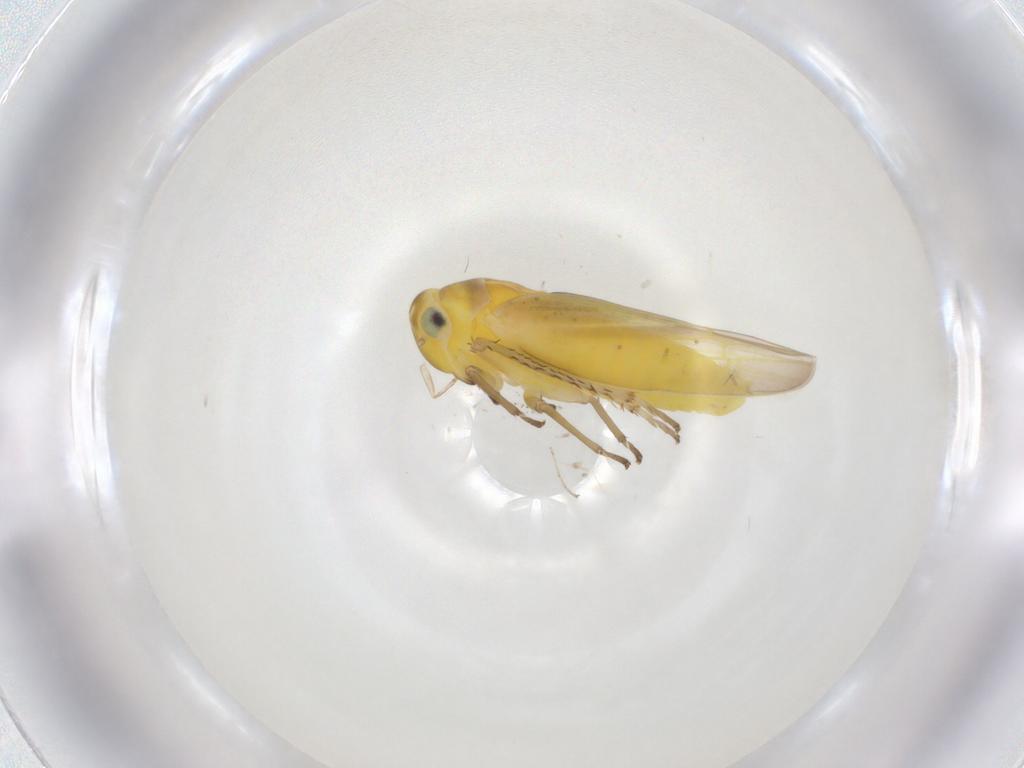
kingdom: Animalia
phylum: Arthropoda
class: Insecta
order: Hemiptera
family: Cicadellidae
